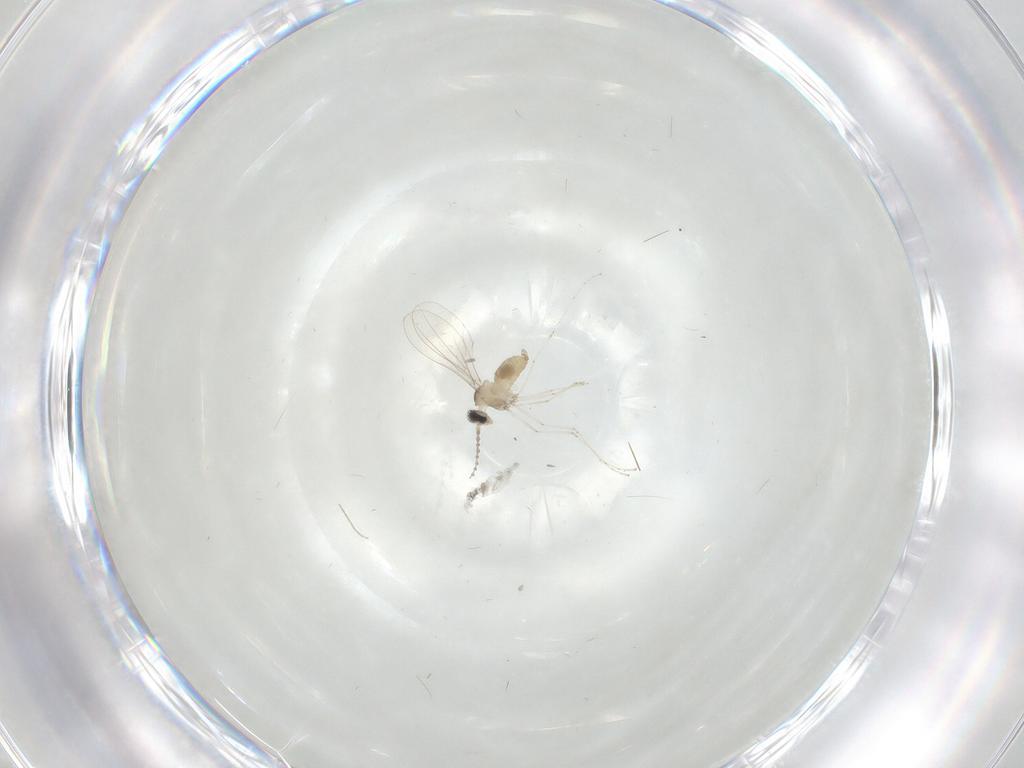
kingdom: Animalia
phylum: Arthropoda
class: Insecta
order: Diptera
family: Cecidomyiidae
